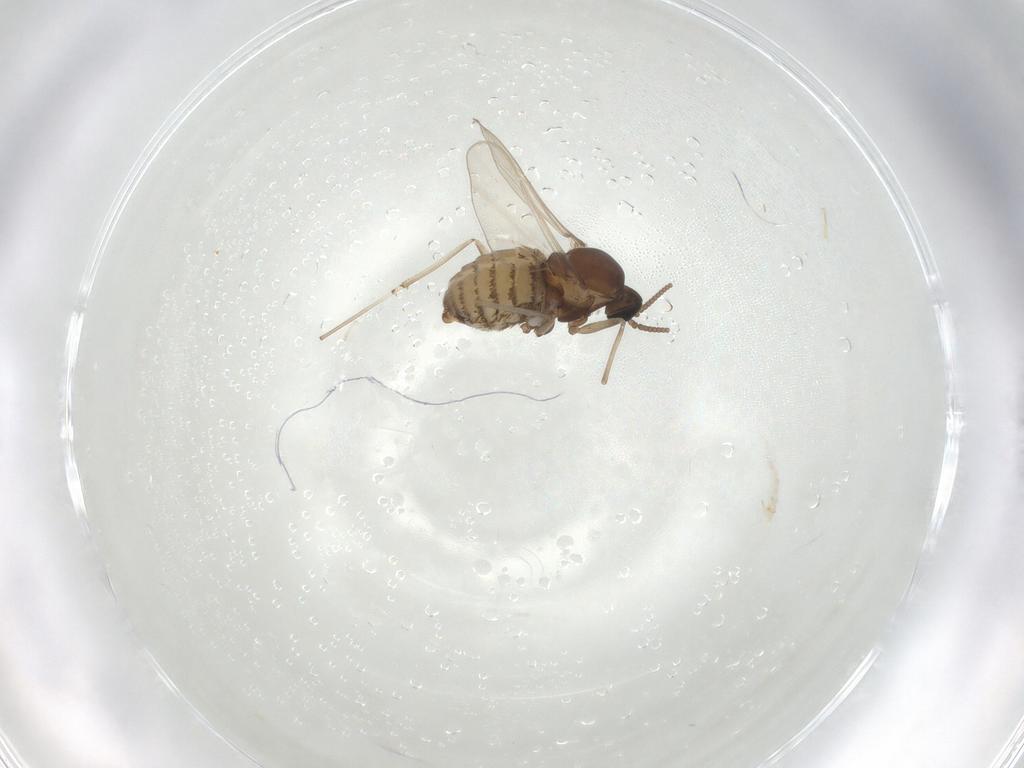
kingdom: Animalia
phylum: Arthropoda
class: Insecta
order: Diptera
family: Cecidomyiidae
